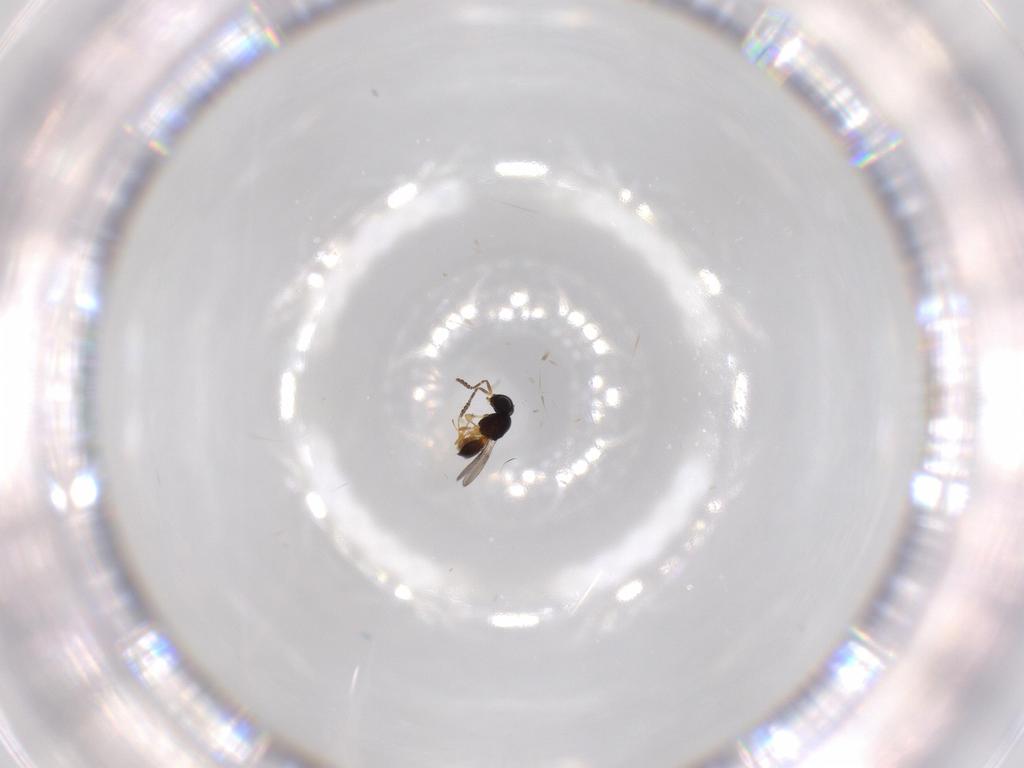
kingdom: Animalia
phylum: Arthropoda
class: Insecta
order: Hymenoptera
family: Scelionidae
